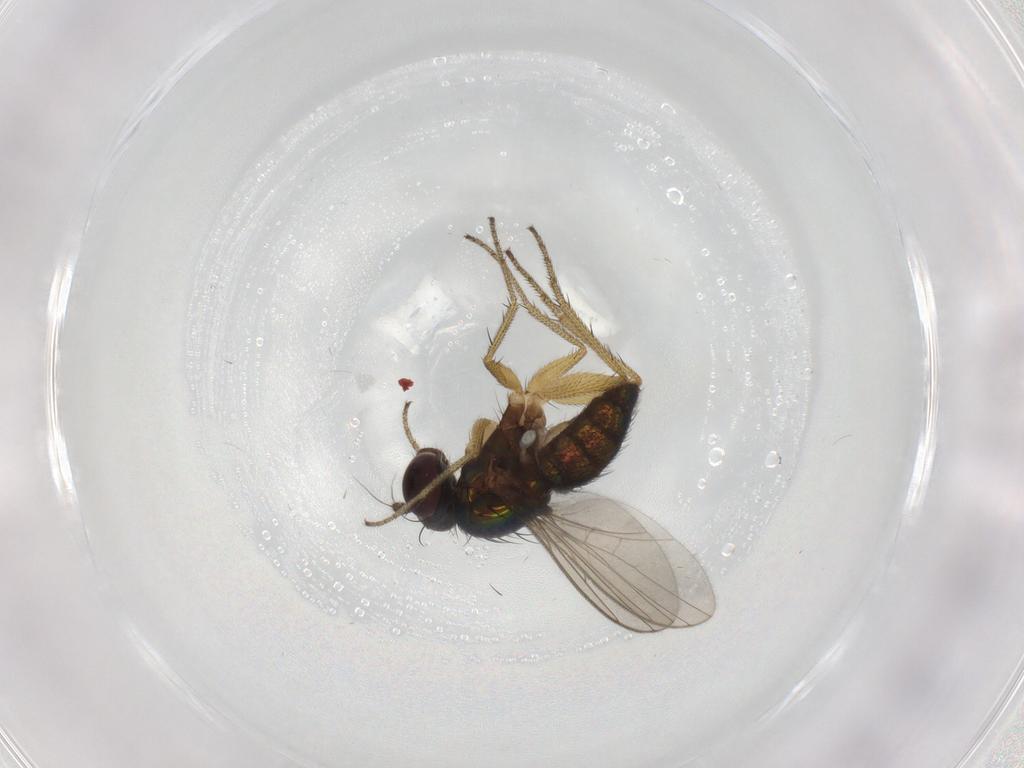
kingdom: Animalia
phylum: Arthropoda
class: Insecta
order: Diptera
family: Dolichopodidae
